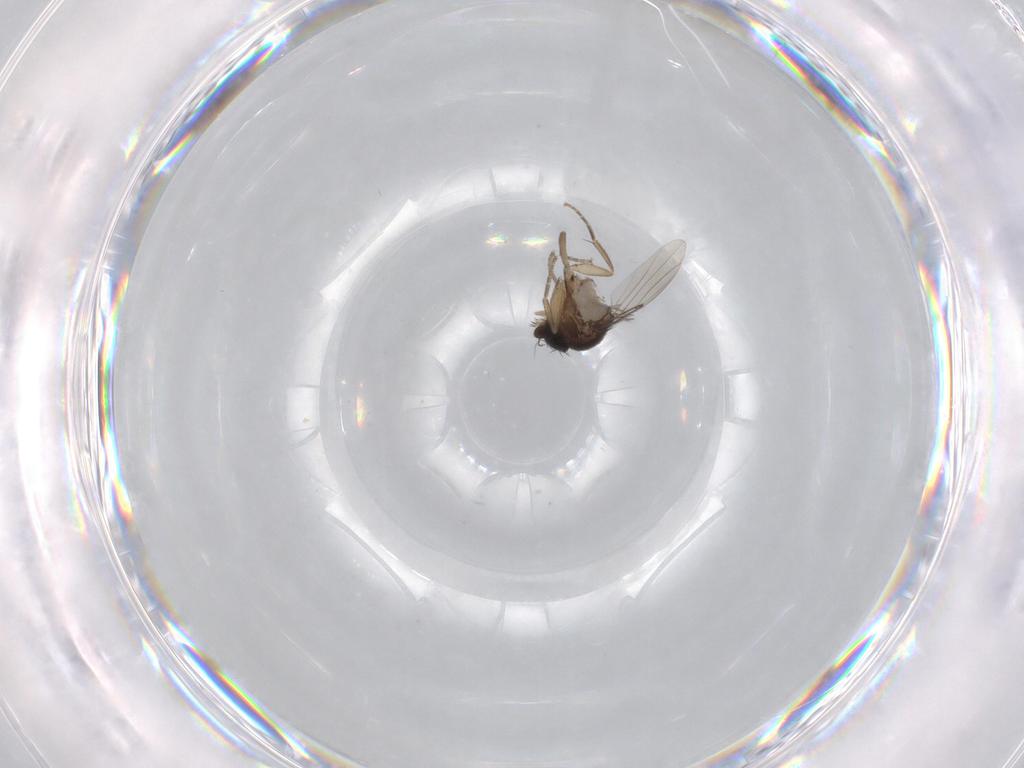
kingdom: Animalia
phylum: Arthropoda
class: Insecta
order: Diptera
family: Phoridae
